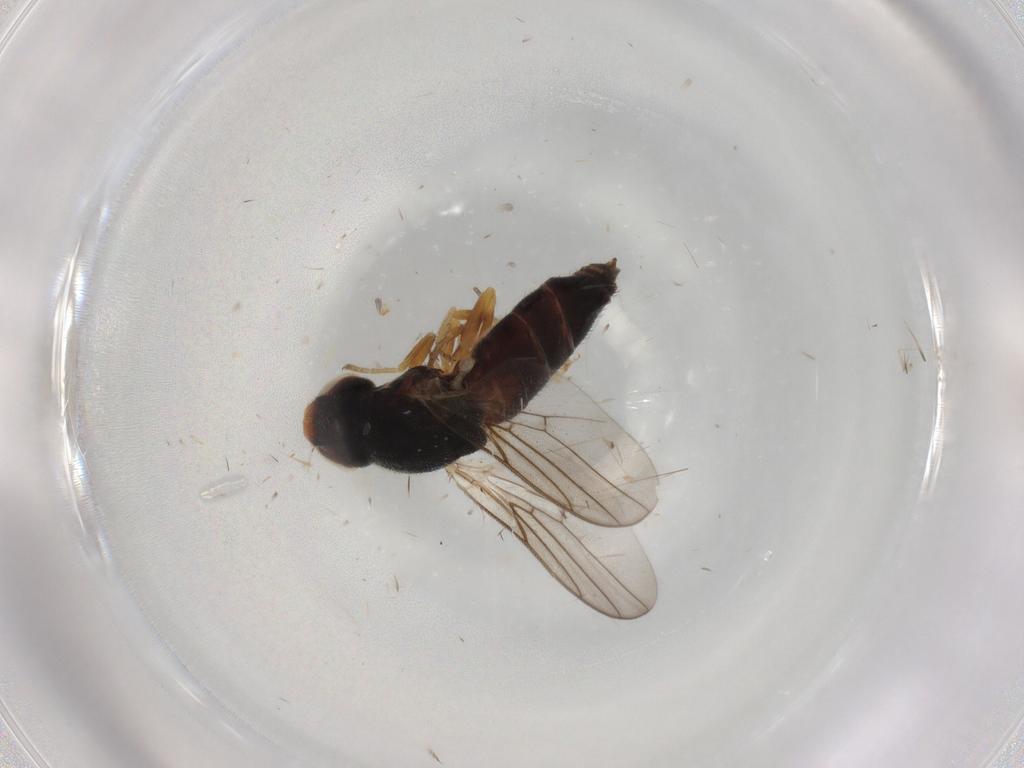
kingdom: Animalia
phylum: Arthropoda
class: Insecta
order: Diptera
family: Chloropidae
